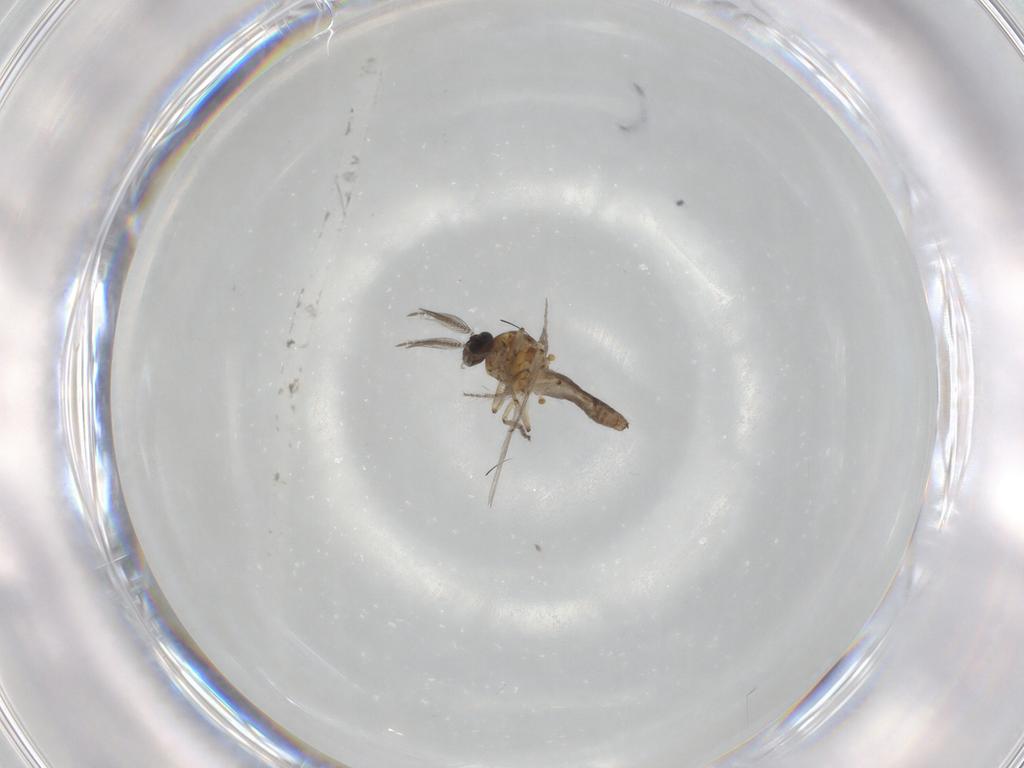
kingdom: Animalia
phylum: Arthropoda
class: Insecta
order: Diptera
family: Ceratopogonidae
